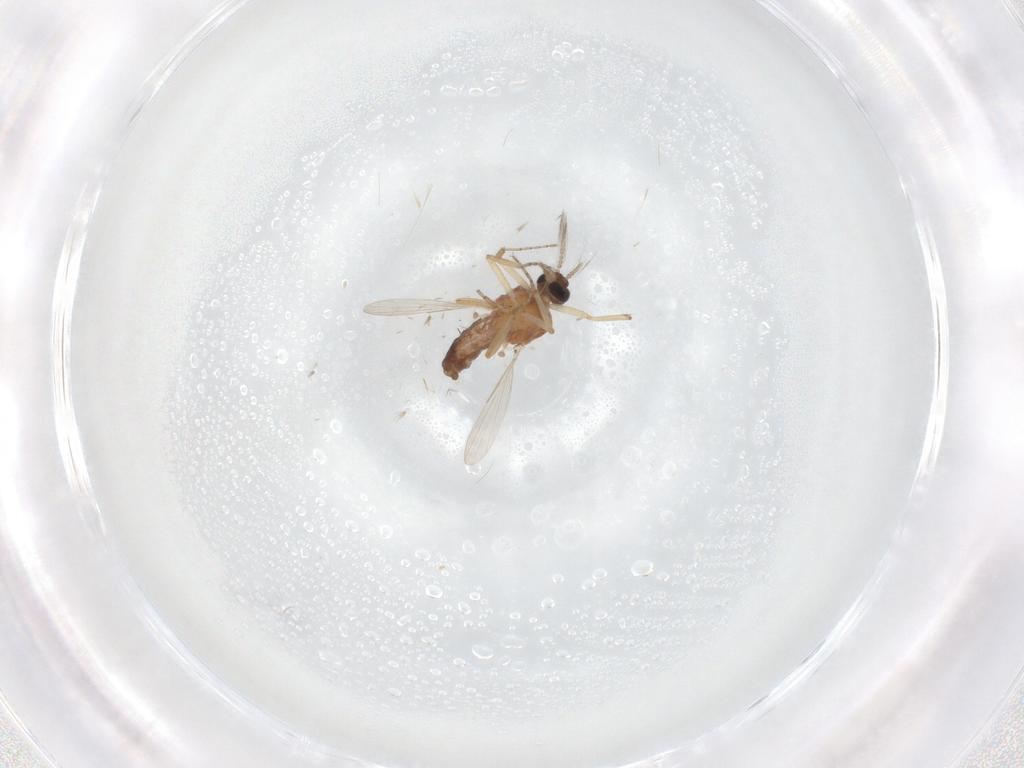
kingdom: Animalia
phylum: Arthropoda
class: Insecta
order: Diptera
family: Ceratopogonidae
